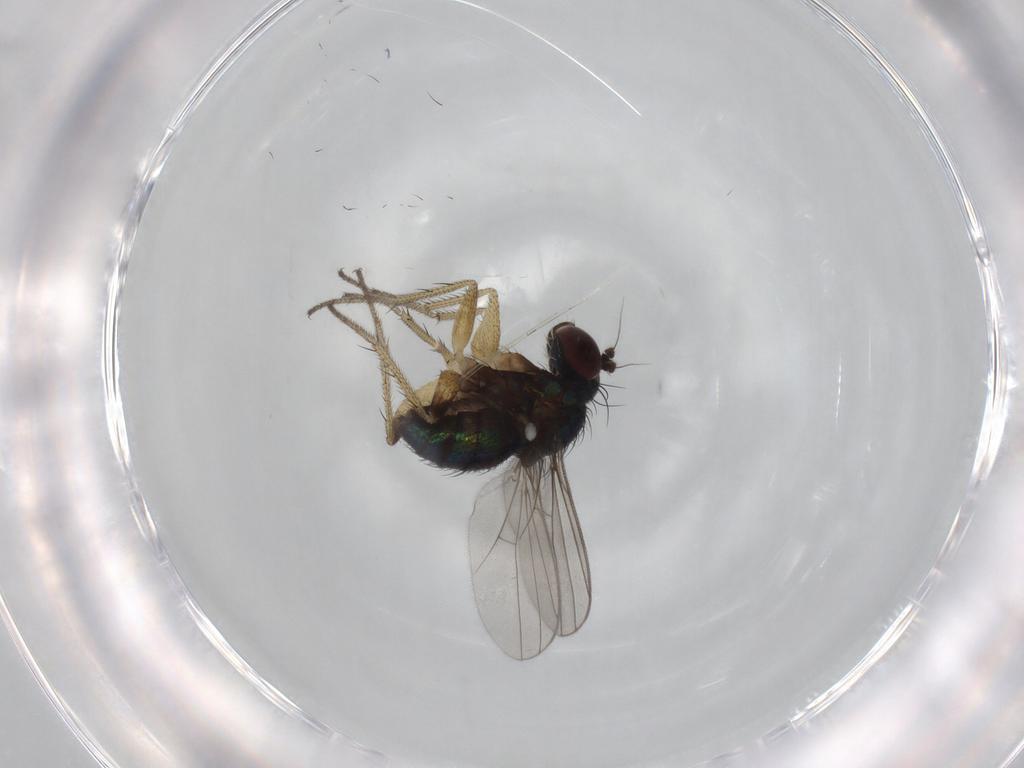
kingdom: Animalia
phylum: Arthropoda
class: Insecta
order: Diptera
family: Dolichopodidae
